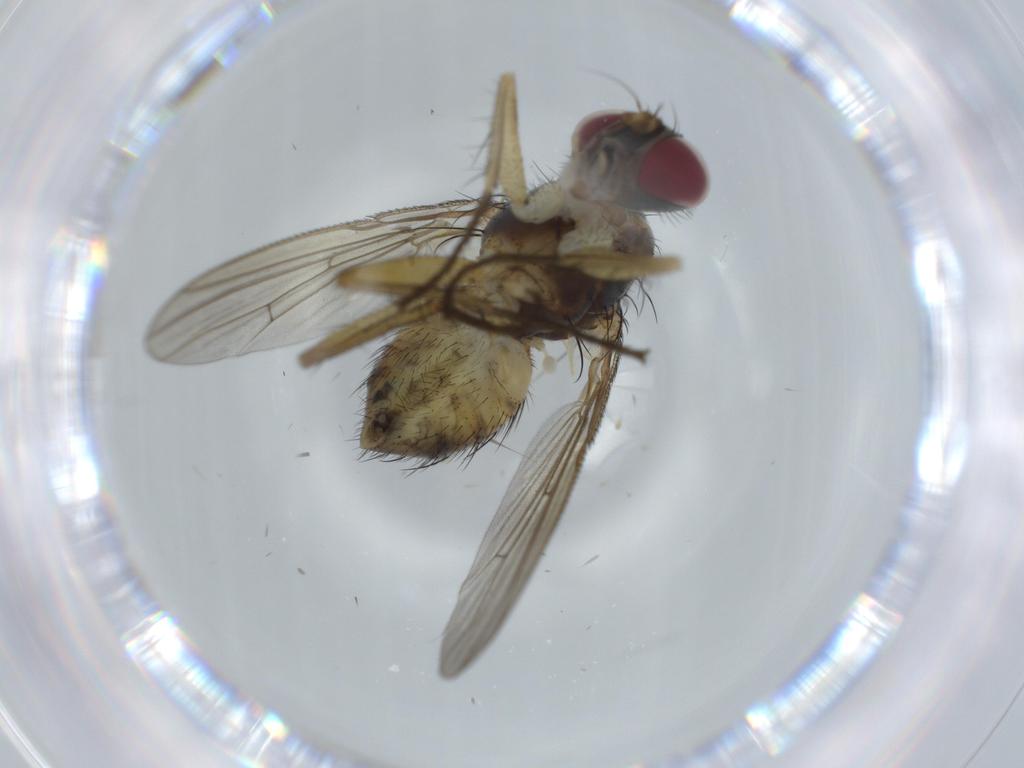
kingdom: Animalia
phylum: Arthropoda
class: Insecta
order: Diptera
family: Muscidae
